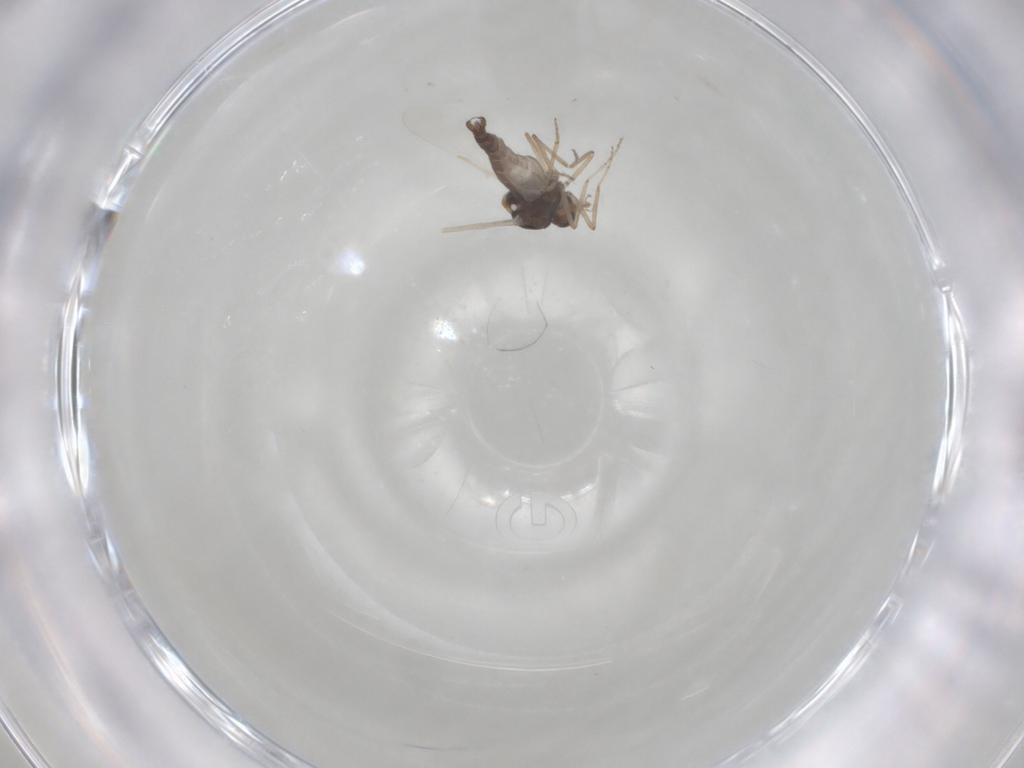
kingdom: Animalia
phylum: Arthropoda
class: Insecta
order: Diptera
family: Ceratopogonidae
